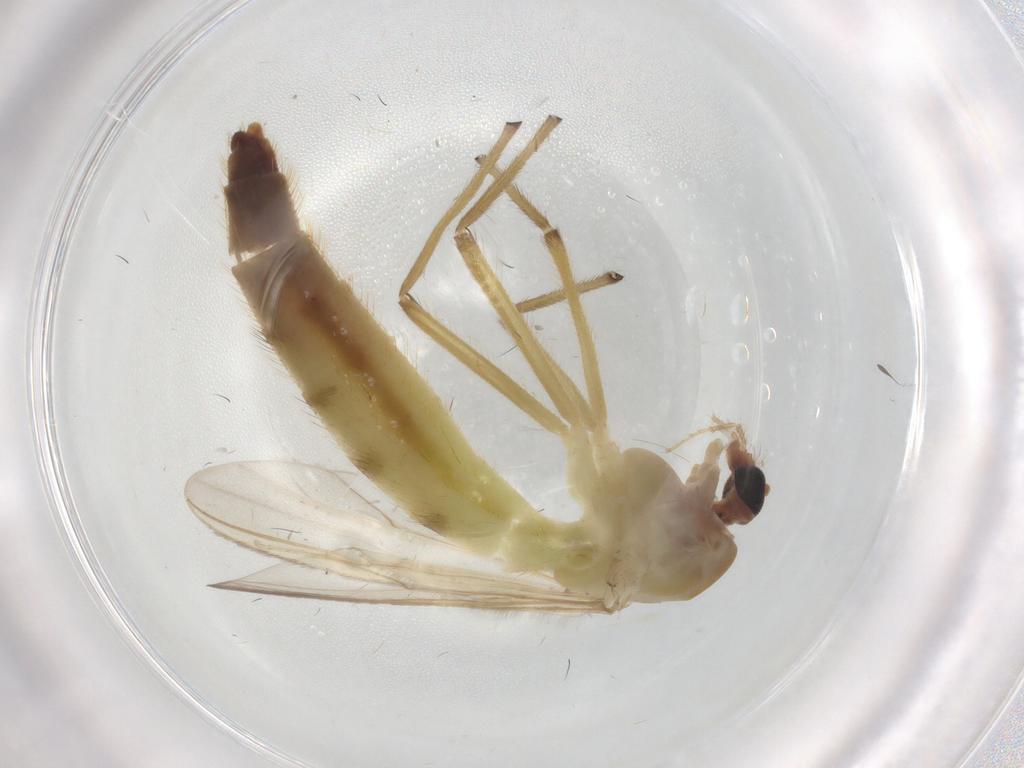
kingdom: Animalia
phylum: Arthropoda
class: Insecta
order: Diptera
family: Chironomidae
